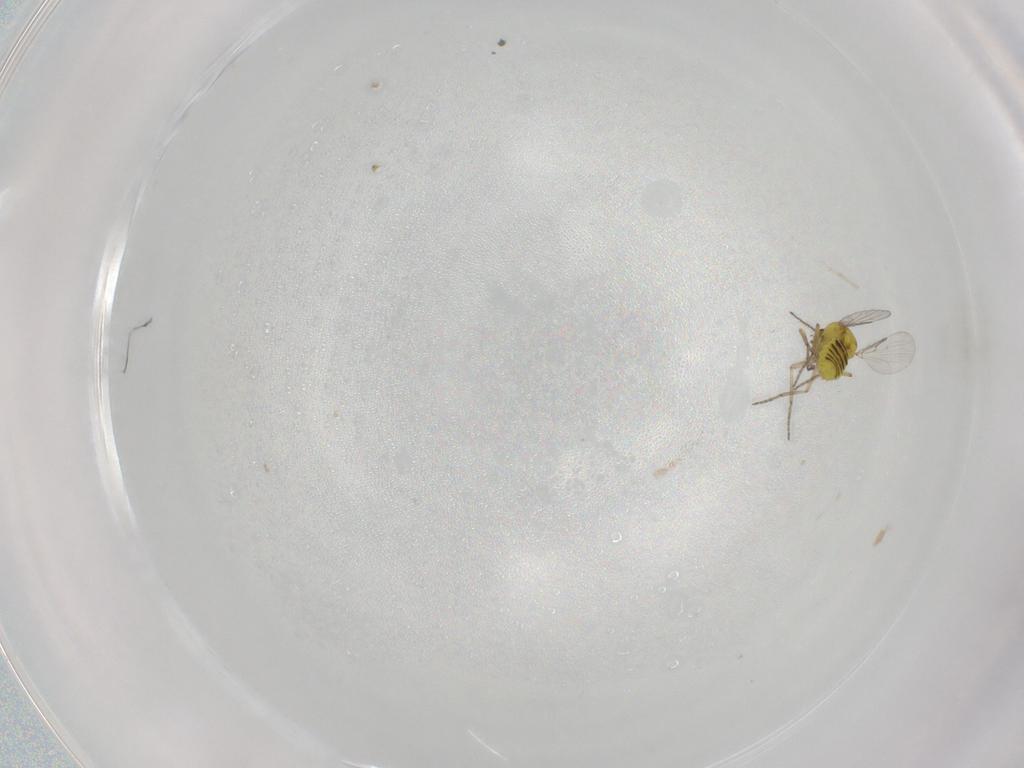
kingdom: Animalia
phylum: Arthropoda
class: Insecta
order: Diptera
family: Ceratopogonidae
